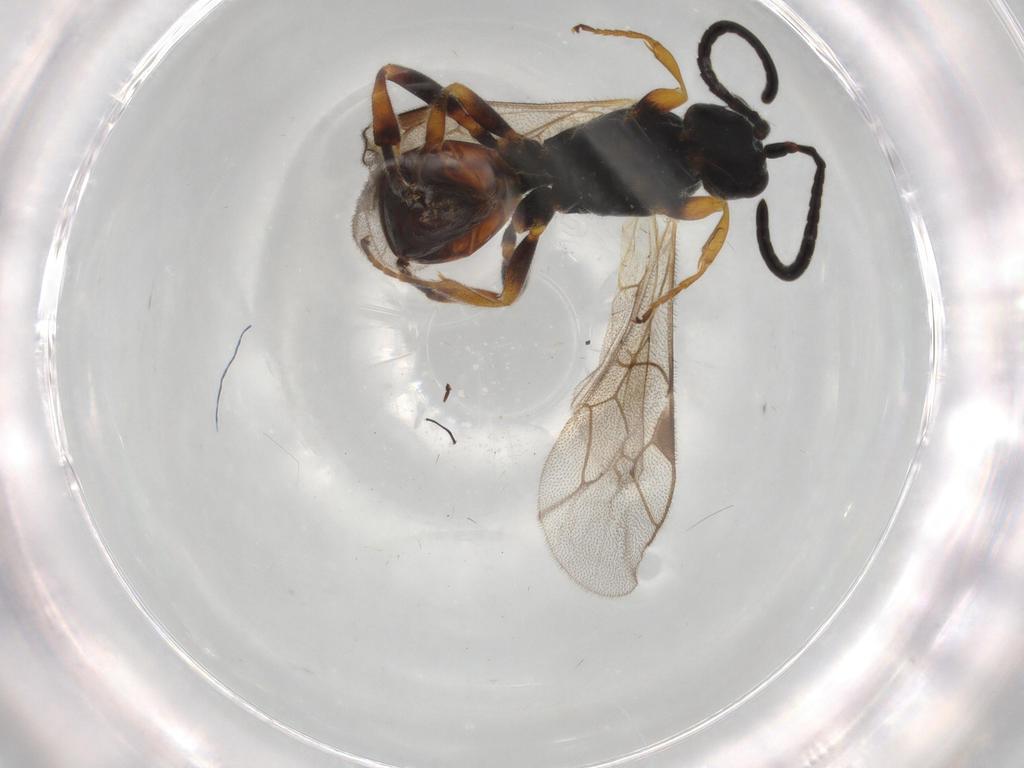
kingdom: Animalia
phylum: Arthropoda
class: Insecta
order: Hymenoptera
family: Ichneumonidae
